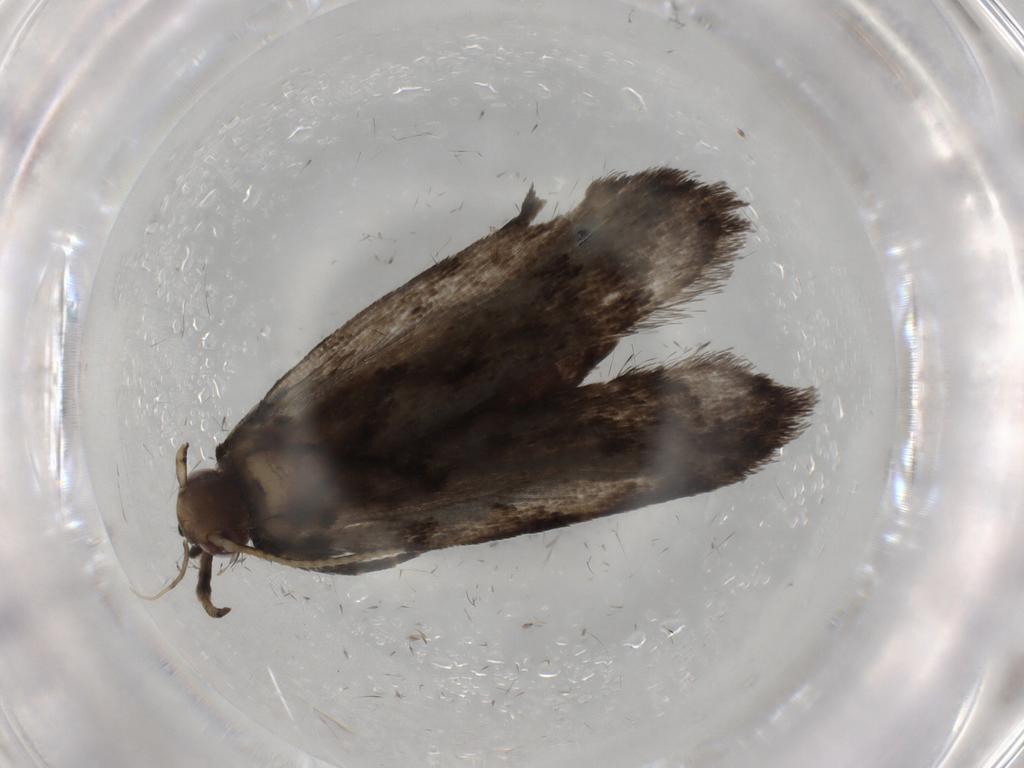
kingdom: Animalia
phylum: Arthropoda
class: Insecta
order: Lepidoptera
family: Gelechiidae
